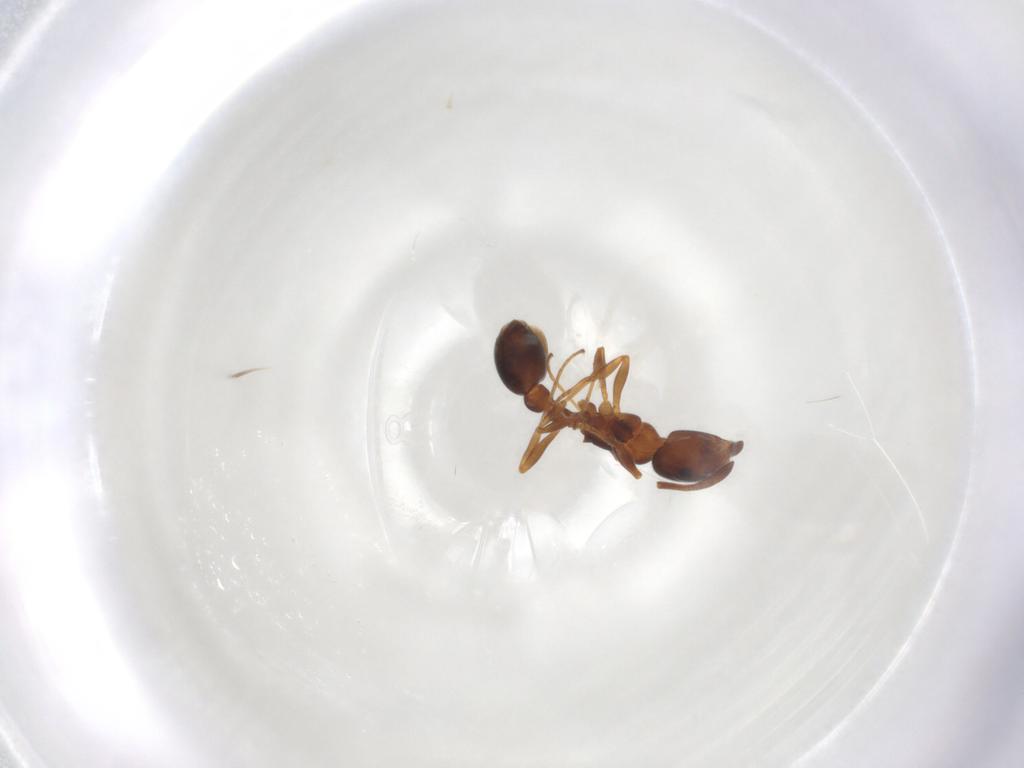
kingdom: Animalia
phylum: Arthropoda
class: Insecta
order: Hymenoptera
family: Formicidae
